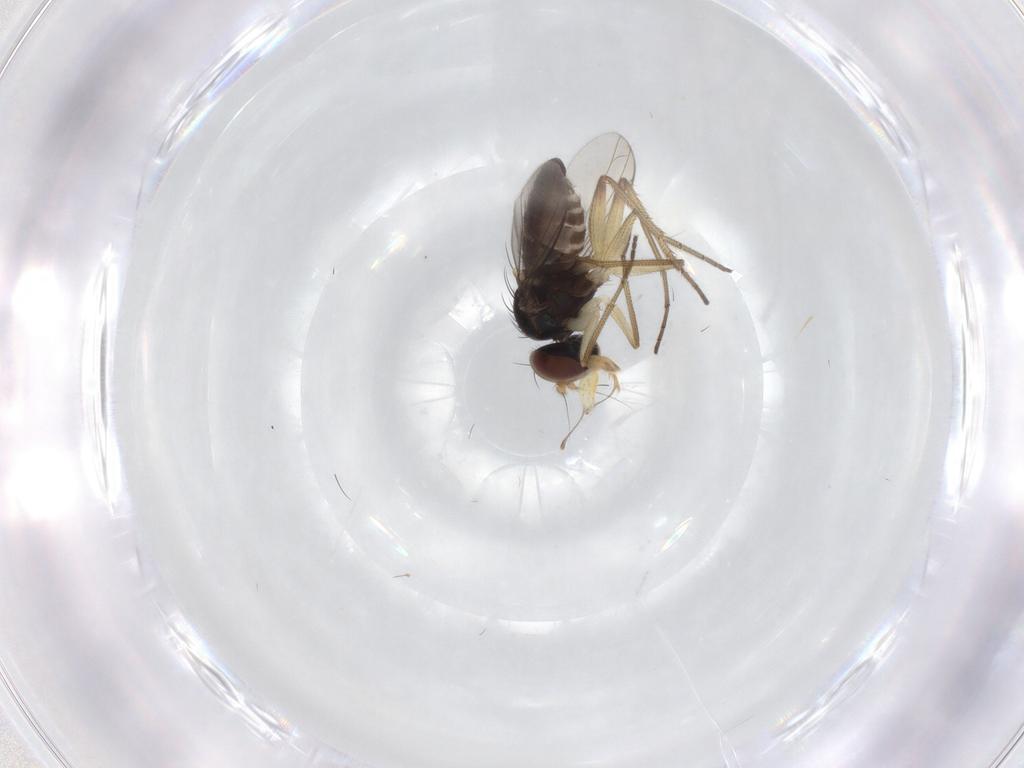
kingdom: Animalia
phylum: Arthropoda
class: Insecta
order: Diptera
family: Dolichopodidae
